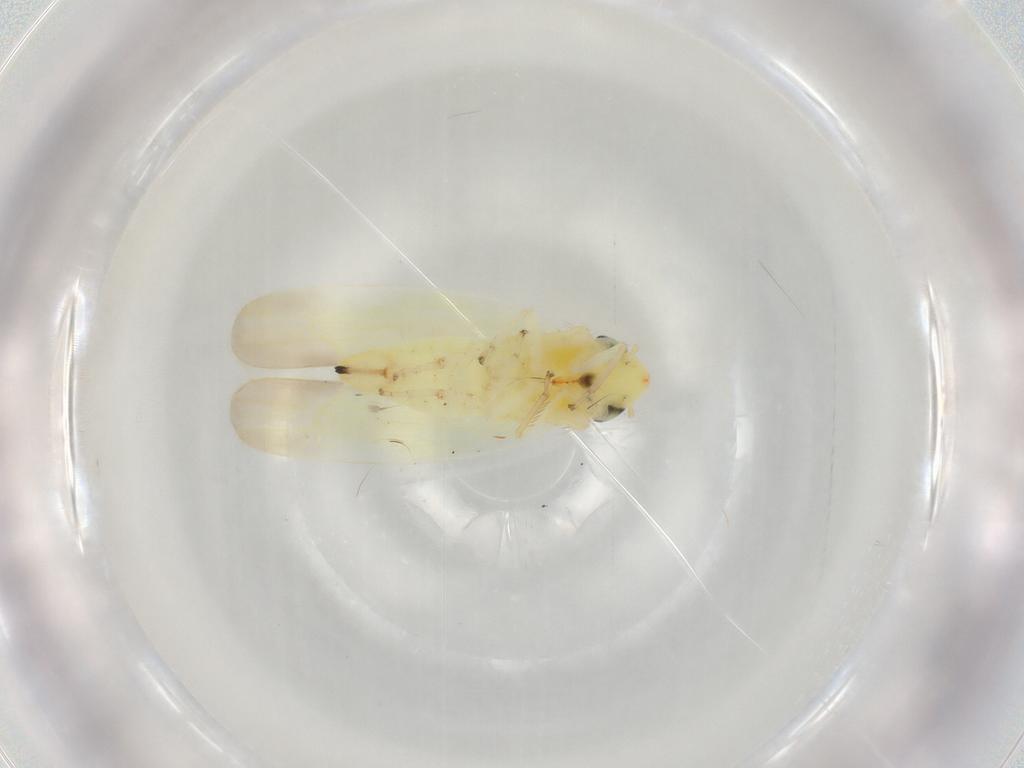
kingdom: Animalia
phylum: Arthropoda
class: Insecta
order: Hemiptera
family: Cicadellidae
